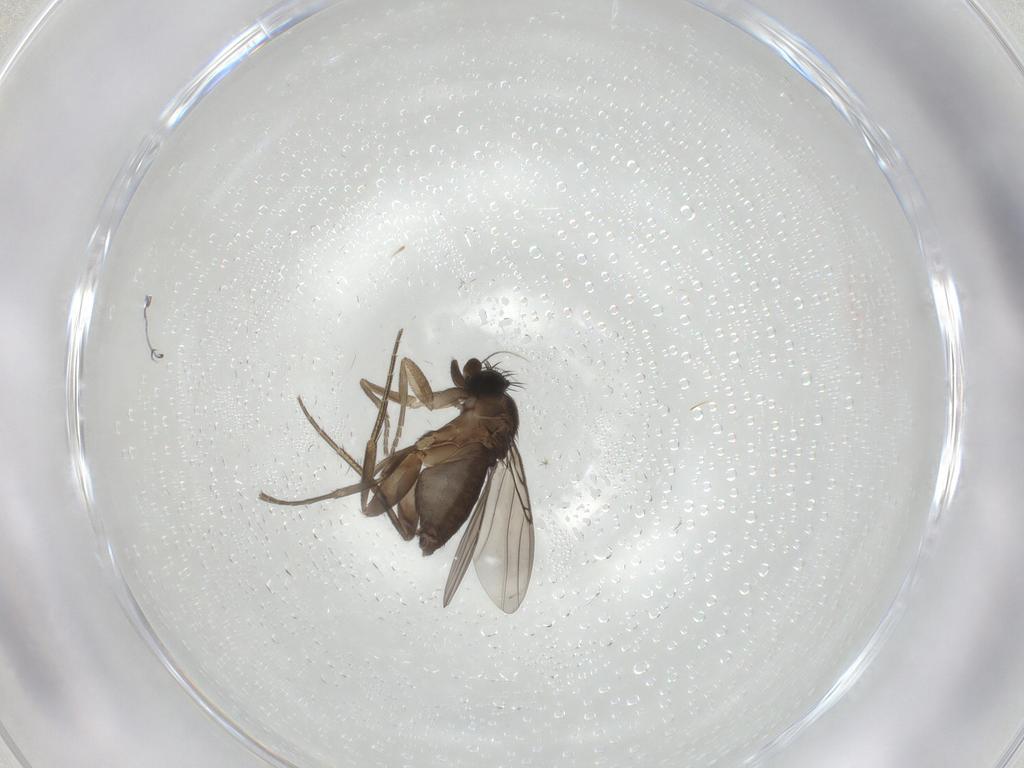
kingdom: Animalia
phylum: Arthropoda
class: Insecta
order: Diptera
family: Phoridae
